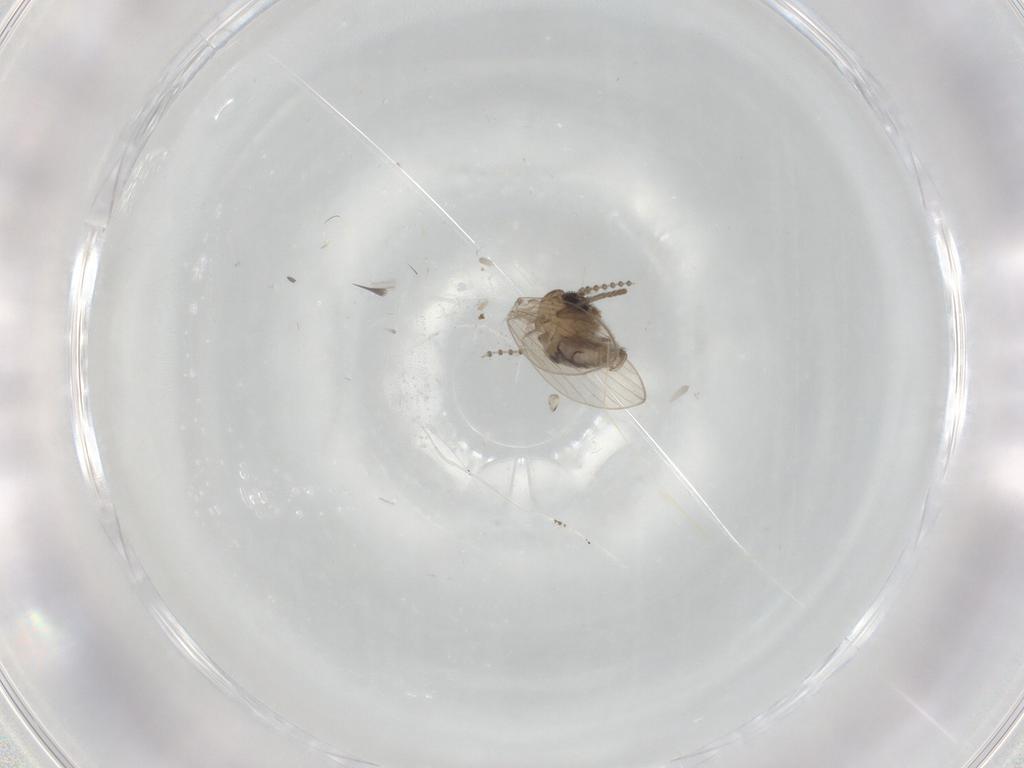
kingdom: Animalia
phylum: Arthropoda
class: Insecta
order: Diptera
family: Psychodidae
